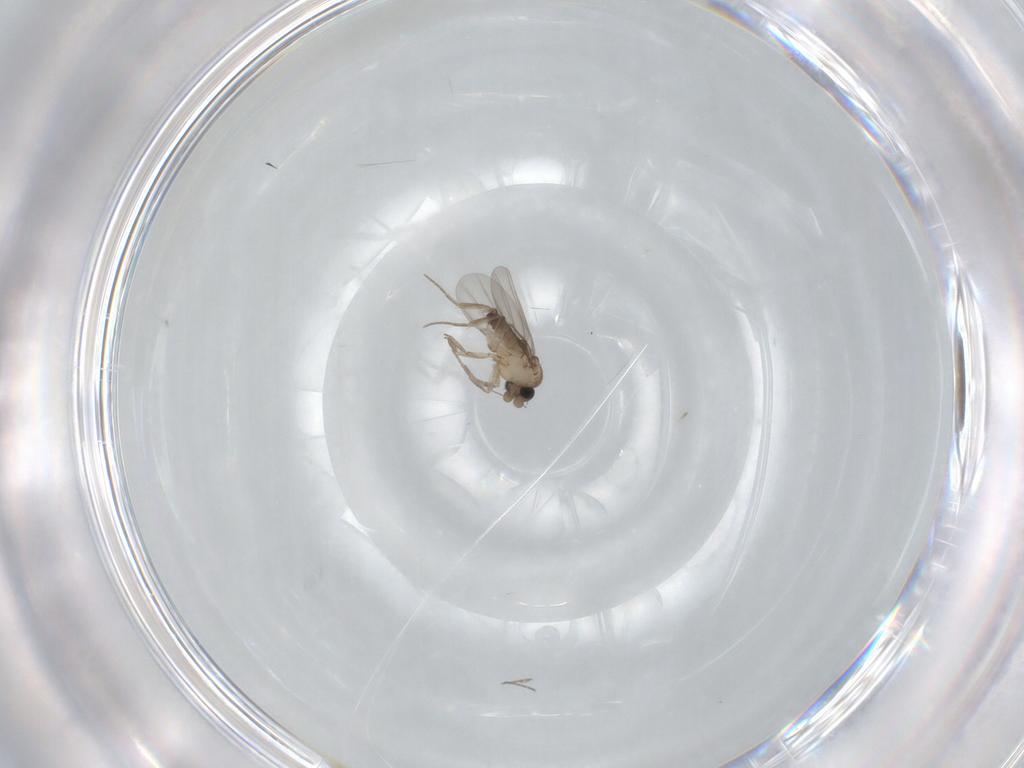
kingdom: Animalia
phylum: Arthropoda
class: Insecta
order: Diptera
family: Phoridae
